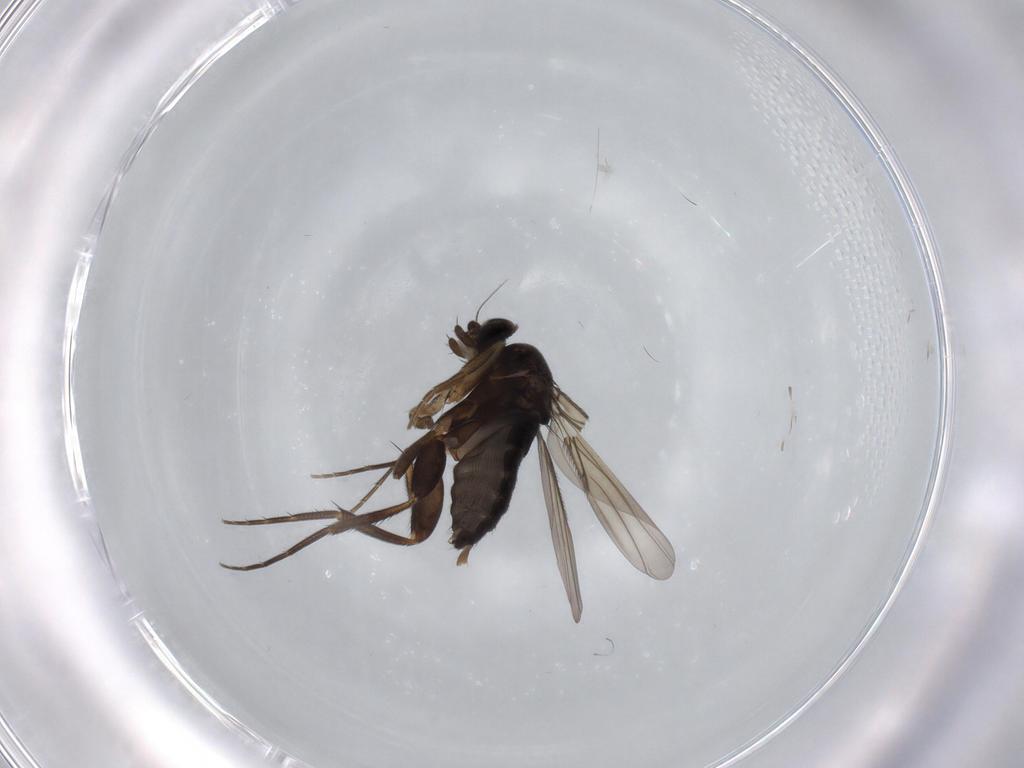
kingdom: Animalia
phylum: Arthropoda
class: Insecta
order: Diptera
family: Phoridae
